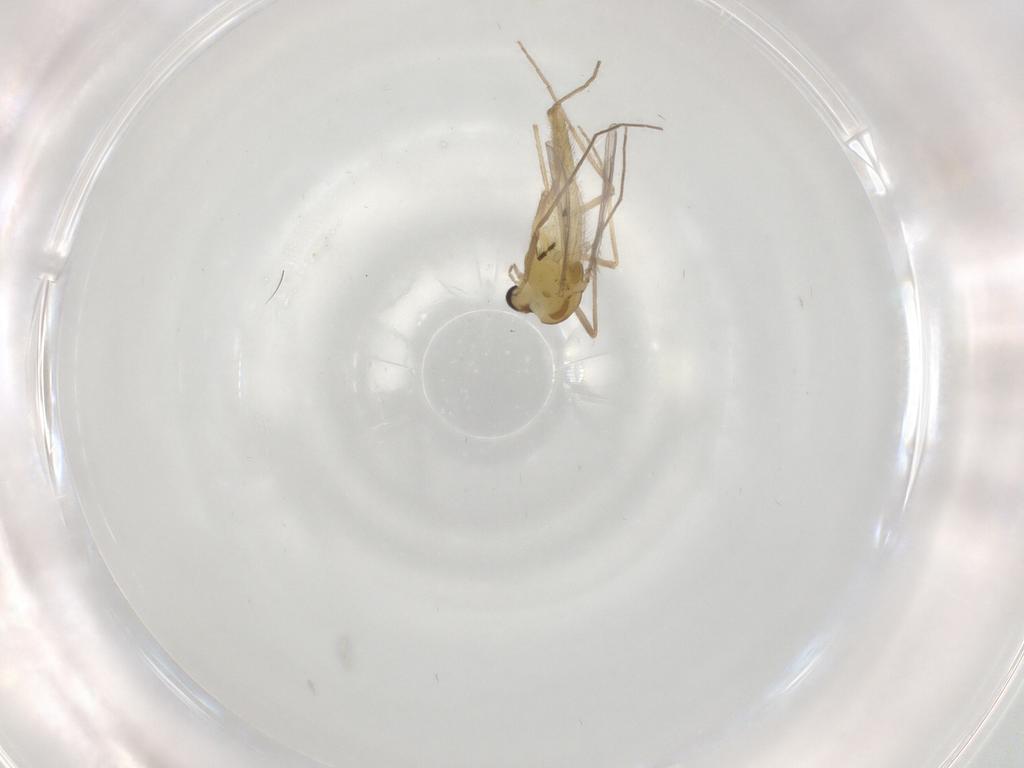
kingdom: Animalia
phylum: Arthropoda
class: Insecta
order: Diptera
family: Chironomidae
